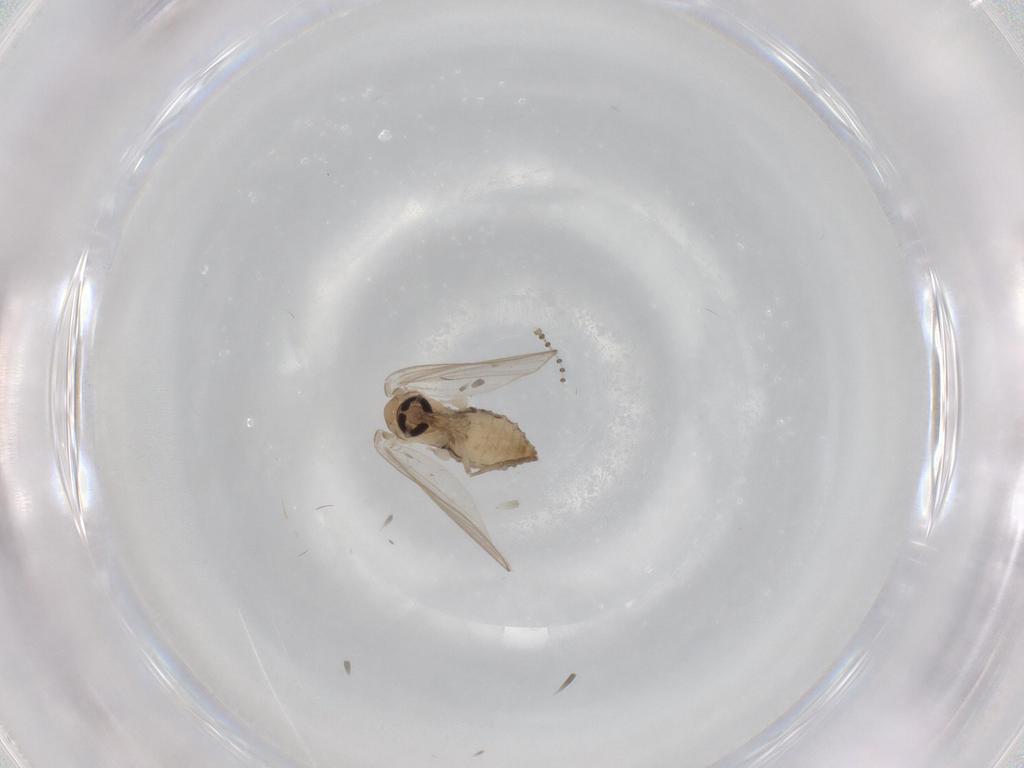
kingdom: Animalia
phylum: Arthropoda
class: Insecta
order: Diptera
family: Psychodidae
